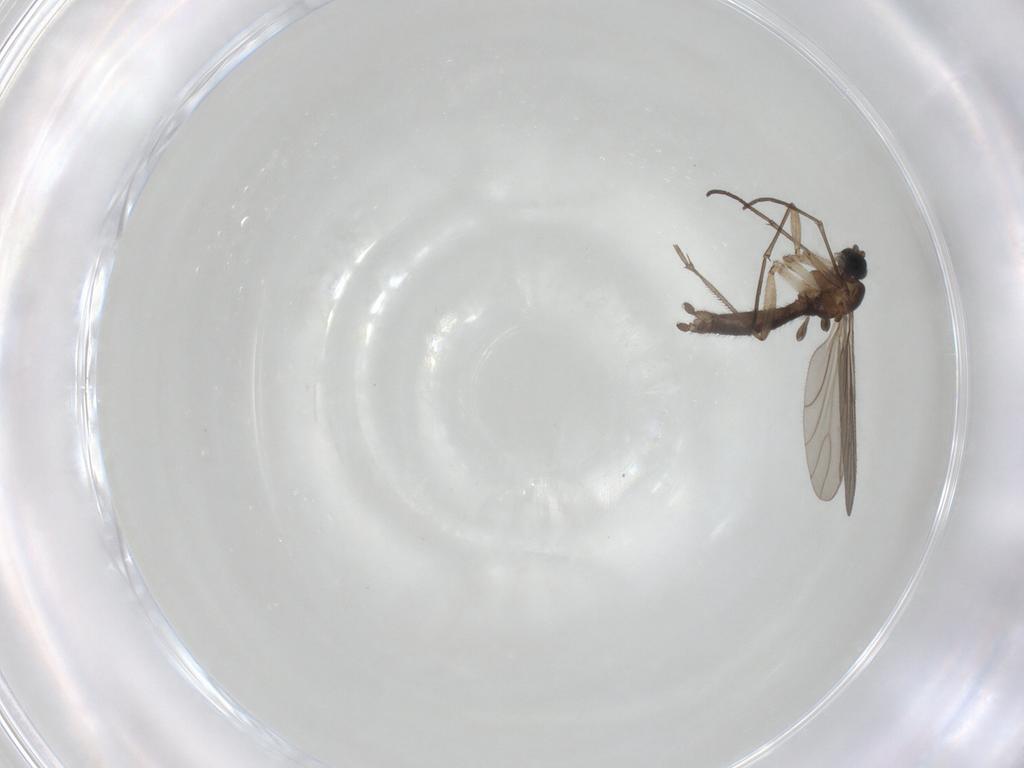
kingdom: Animalia
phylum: Arthropoda
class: Insecta
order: Diptera
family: Sciaridae
